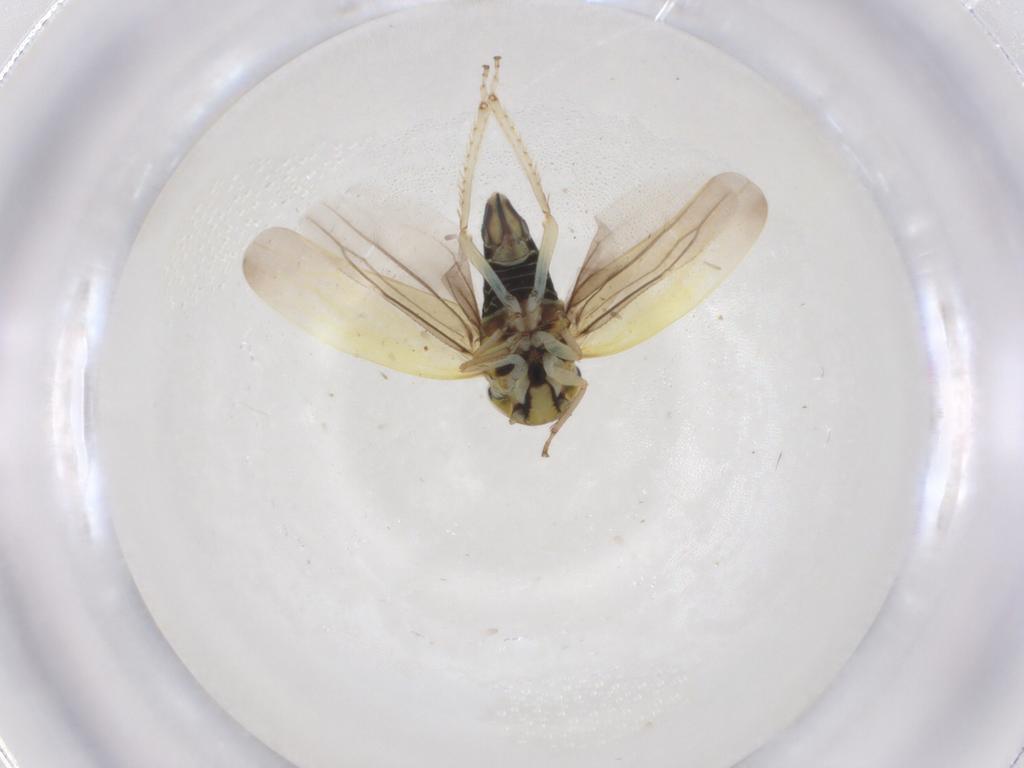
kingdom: Animalia
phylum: Arthropoda
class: Insecta
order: Hemiptera
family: Cicadellidae
